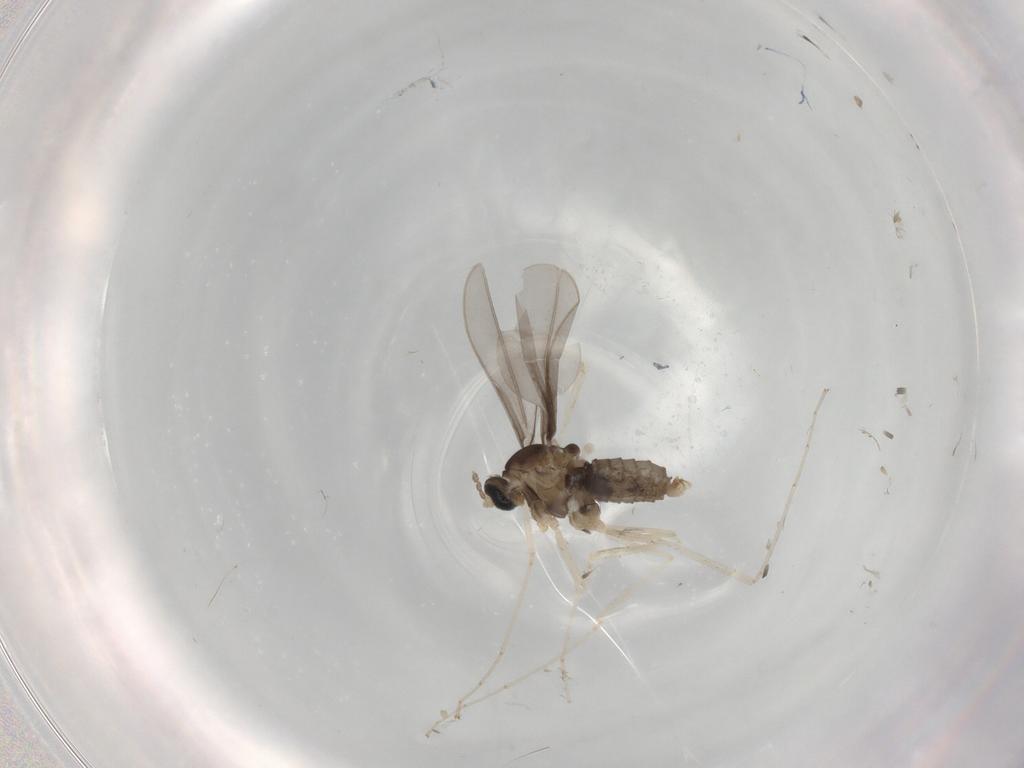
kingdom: Animalia
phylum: Arthropoda
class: Insecta
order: Diptera
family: Cecidomyiidae
